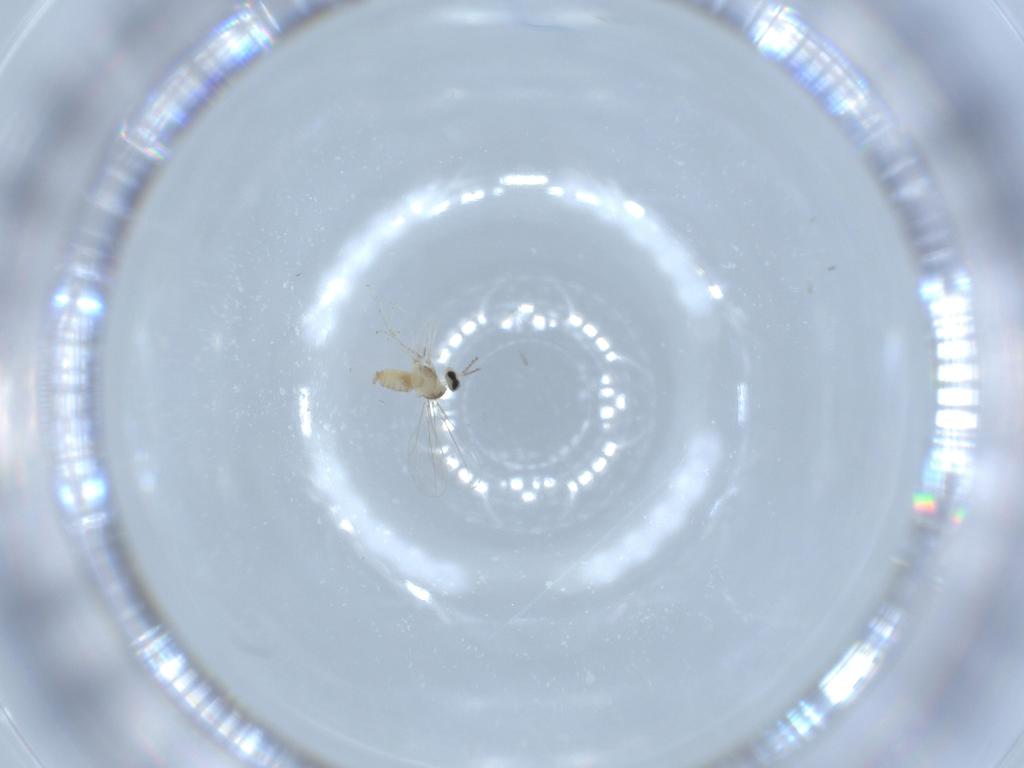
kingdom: Animalia
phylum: Arthropoda
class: Insecta
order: Diptera
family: Cecidomyiidae
